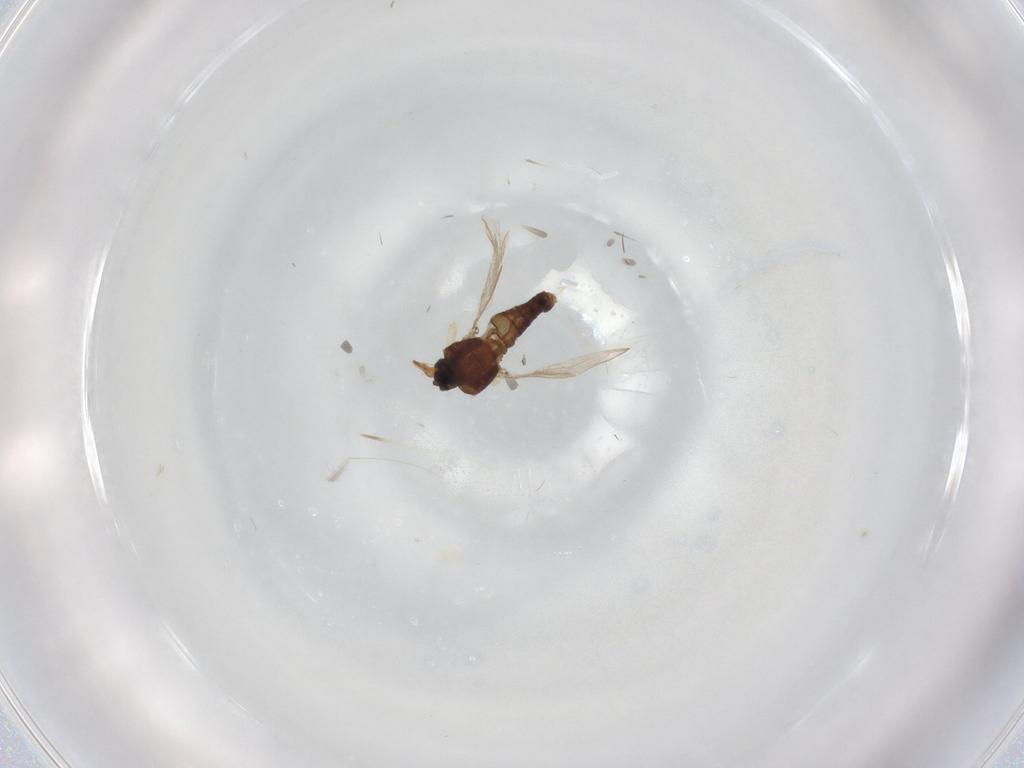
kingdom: Animalia
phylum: Arthropoda
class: Insecta
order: Diptera
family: Ceratopogonidae
